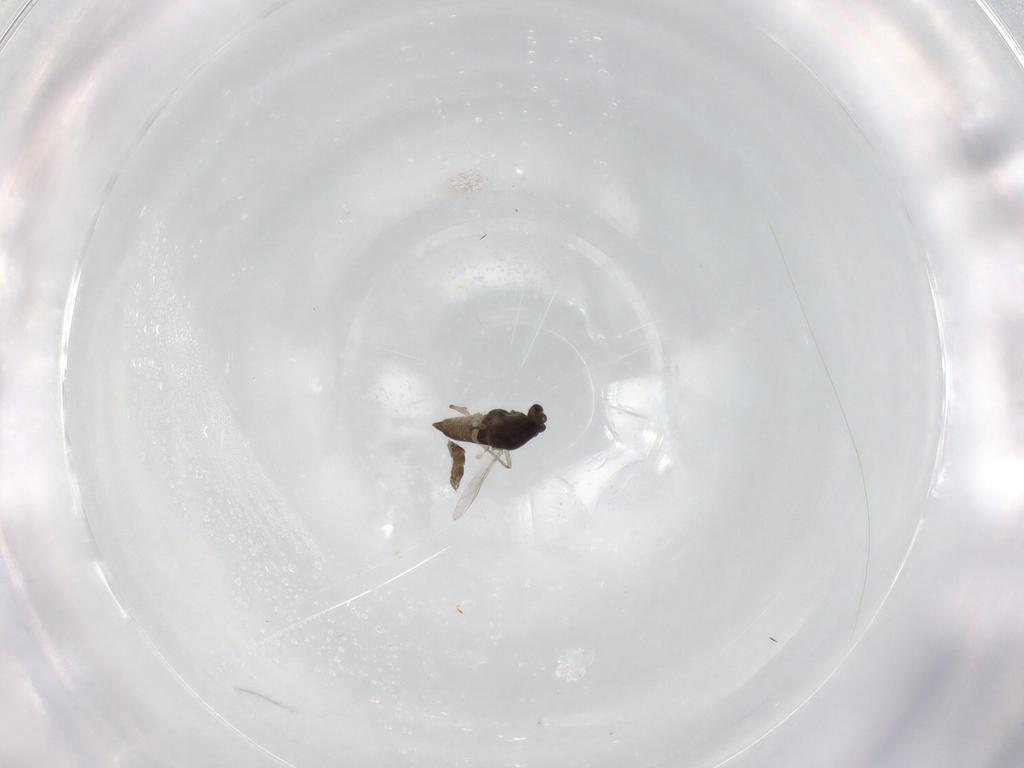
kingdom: Animalia
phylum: Arthropoda
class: Insecta
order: Diptera
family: Chironomidae
